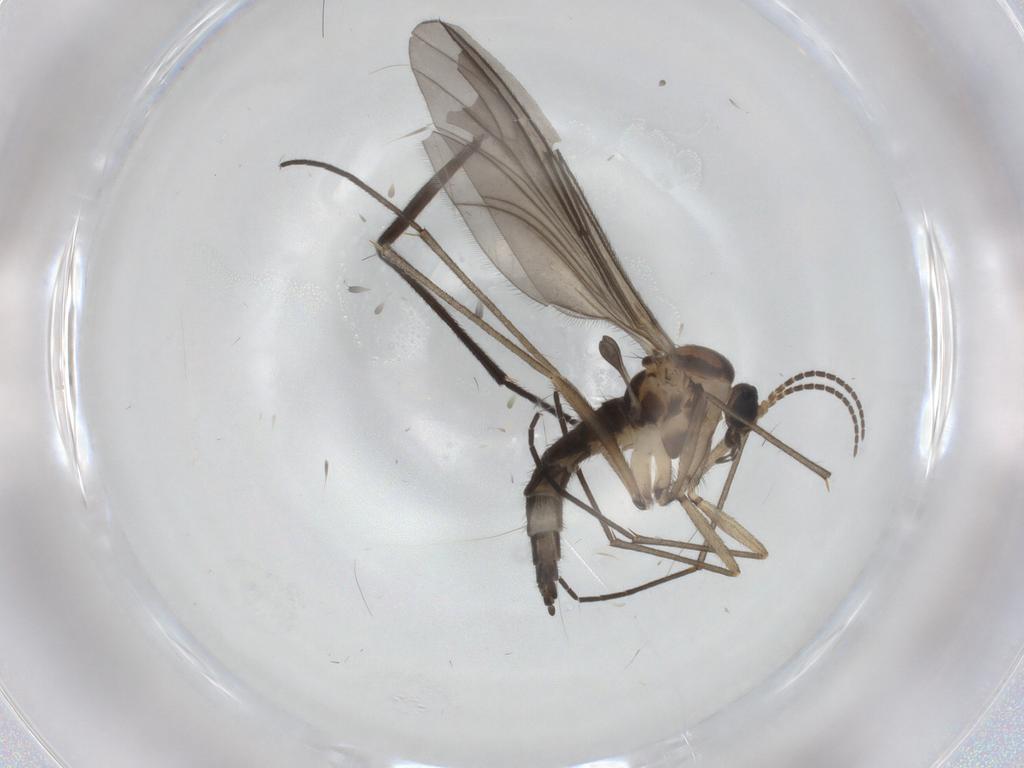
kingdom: Animalia
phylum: Arthropoda
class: Insecta
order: Diptera
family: Sciaridae
